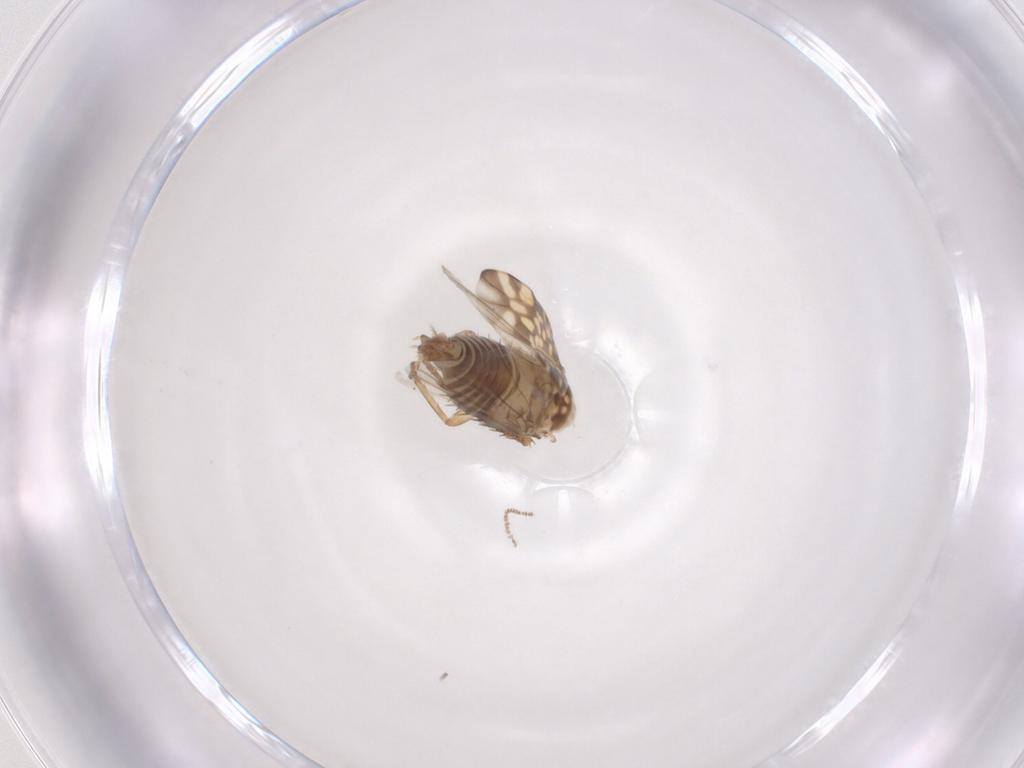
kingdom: Animalia
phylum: Arthropoda
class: Insecta
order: Hemiptera
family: Cicadellidae
